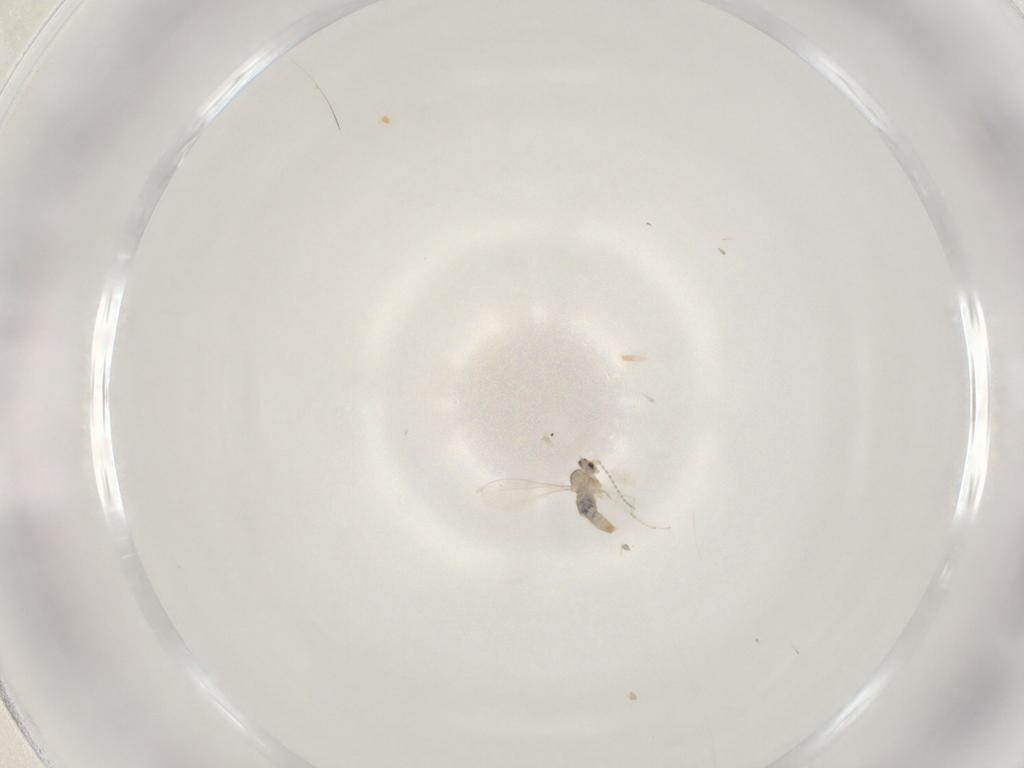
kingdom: Animalia
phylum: Arthropoda
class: Insecta
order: Diptera
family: Cecidomyiidae
